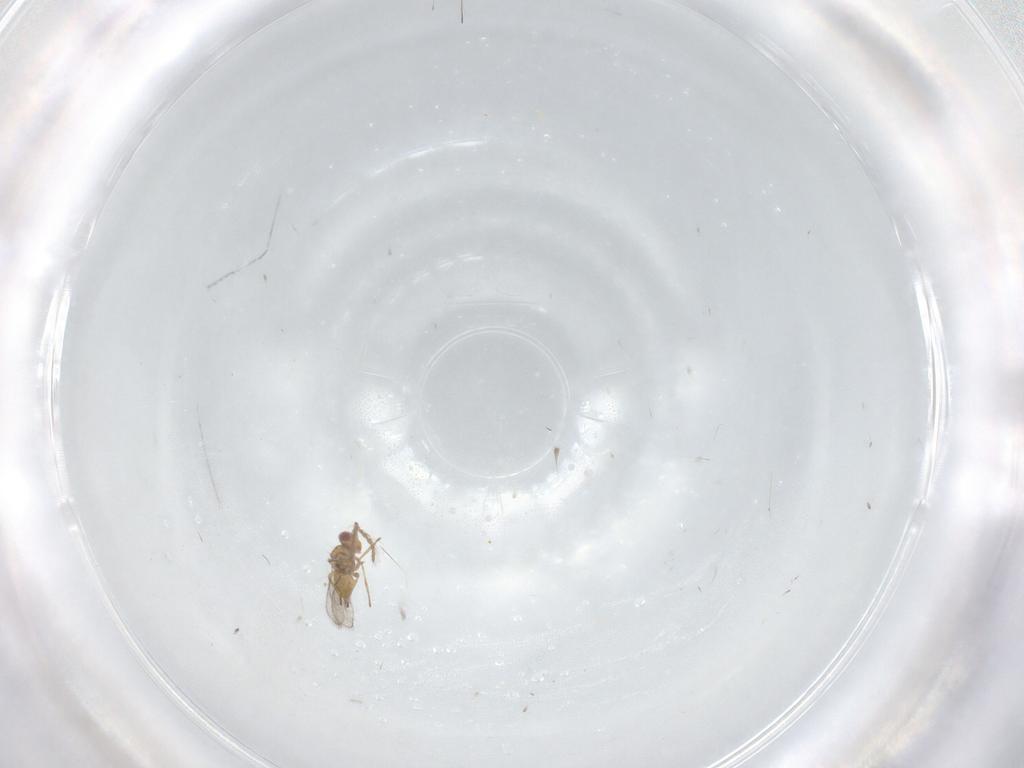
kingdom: Animalia
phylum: Arthropoda
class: Insecta
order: Hymenoptera
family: Eulophidae
